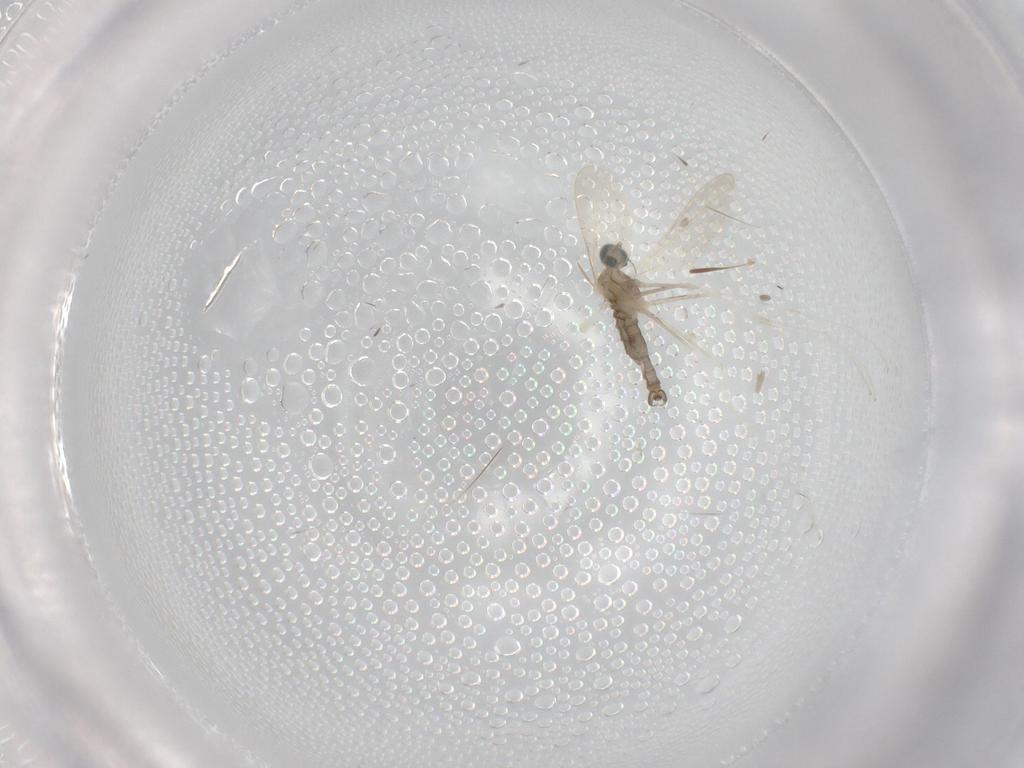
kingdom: Animalia
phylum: Arthropoda
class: Insecta
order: Diptera
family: Cecidomyiidae
